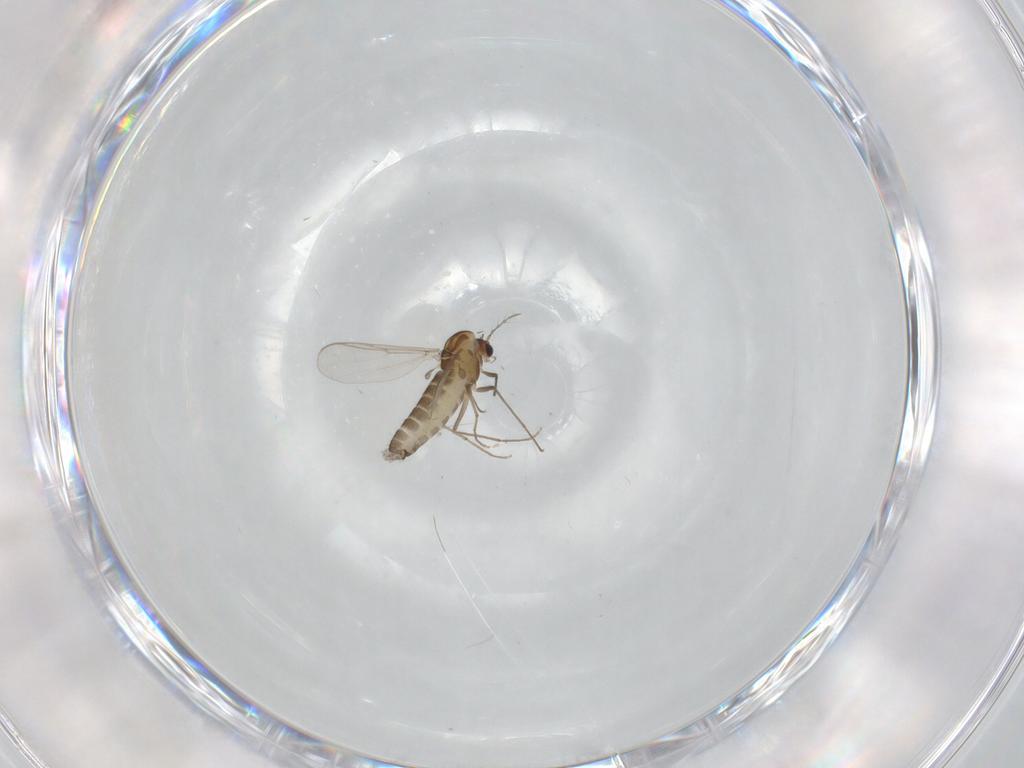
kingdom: Animalia
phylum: Arthropoda
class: Insecta
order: Diptera
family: Chironomidae
